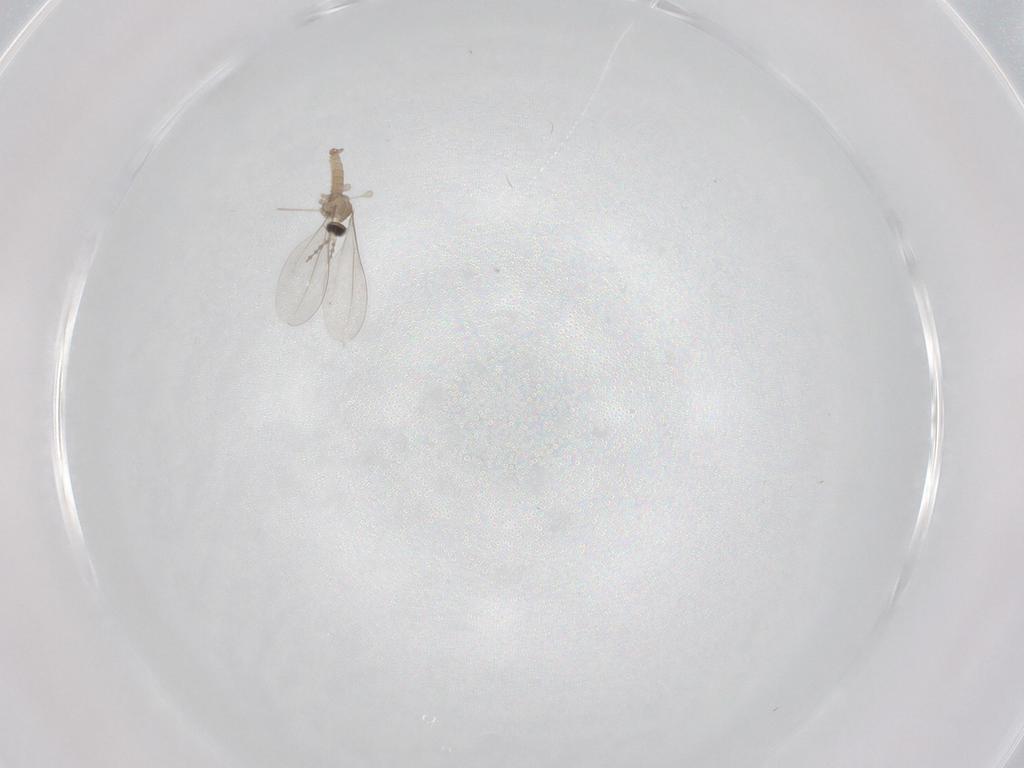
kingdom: Animalia
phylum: Arthropoda
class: Insecta
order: Diptera
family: Cecidomyiidae
